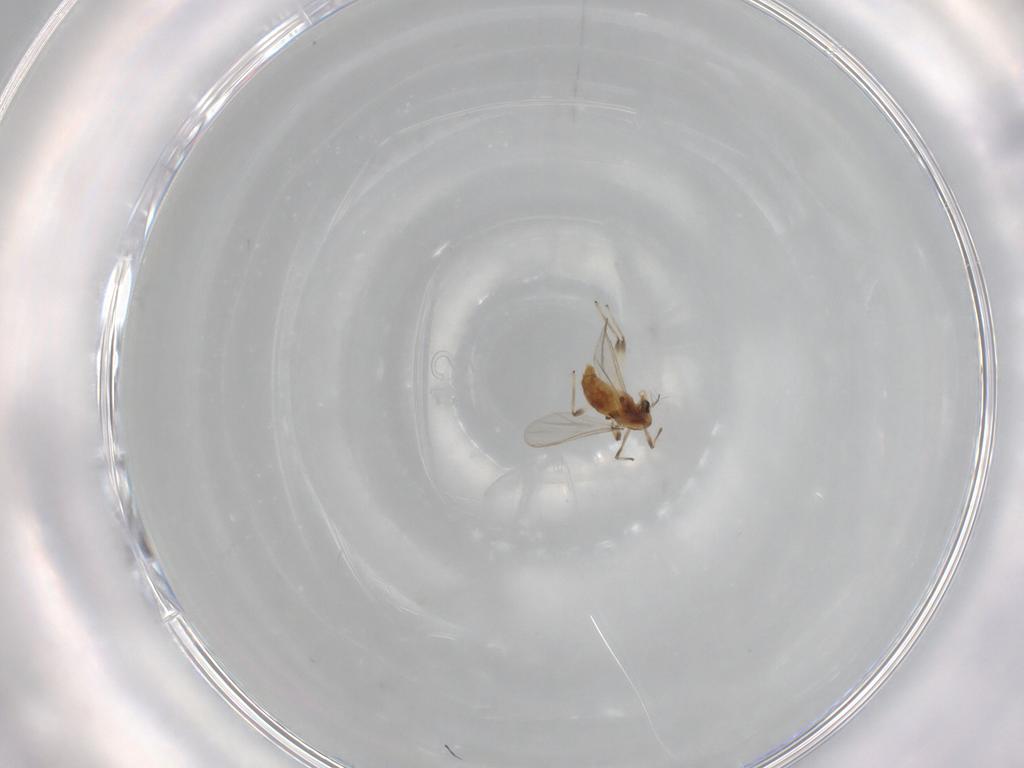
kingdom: Animalia
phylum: Arthropoda
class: Insecta
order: Diptera
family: Chironomidae
